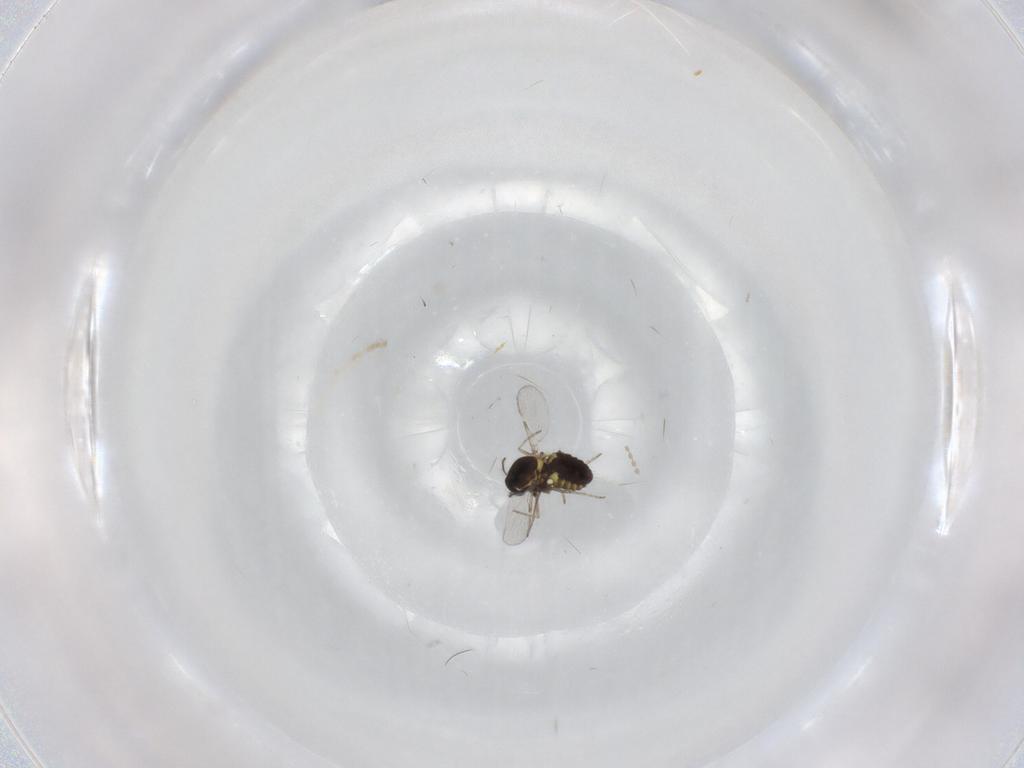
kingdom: Animalia
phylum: Arthropoda
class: Insecta
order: Diptera
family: Ceratopogonidae
